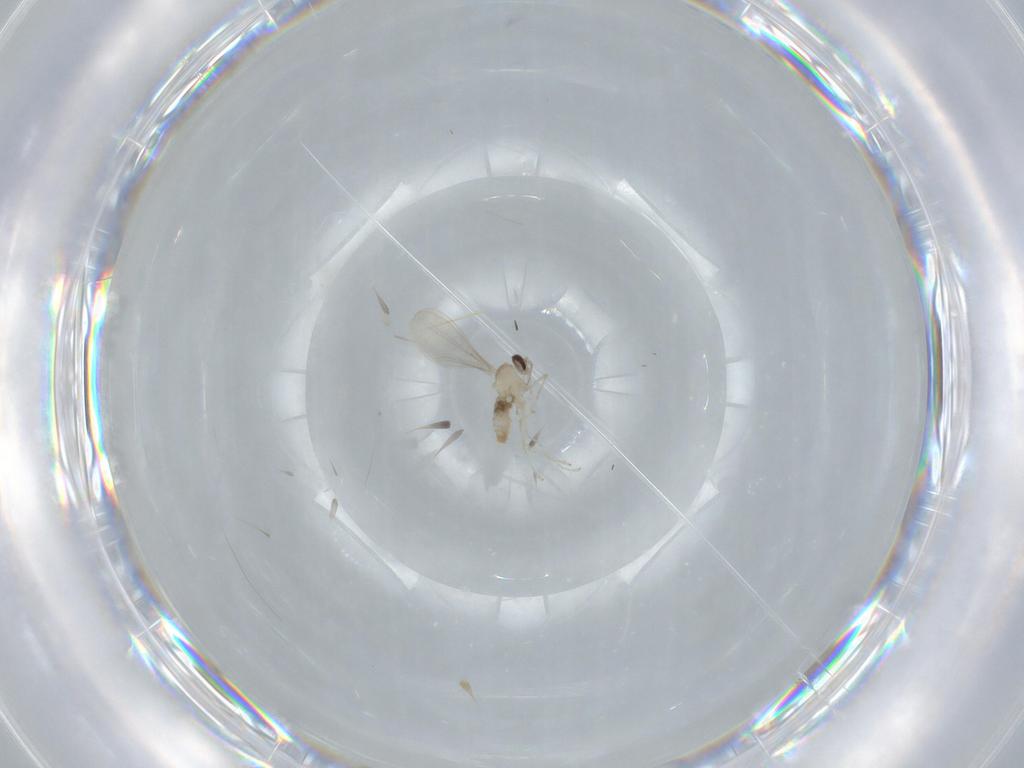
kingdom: Animalia
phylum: Arthropoda
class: Insecta
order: Diptera
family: Cecidomyiidae
